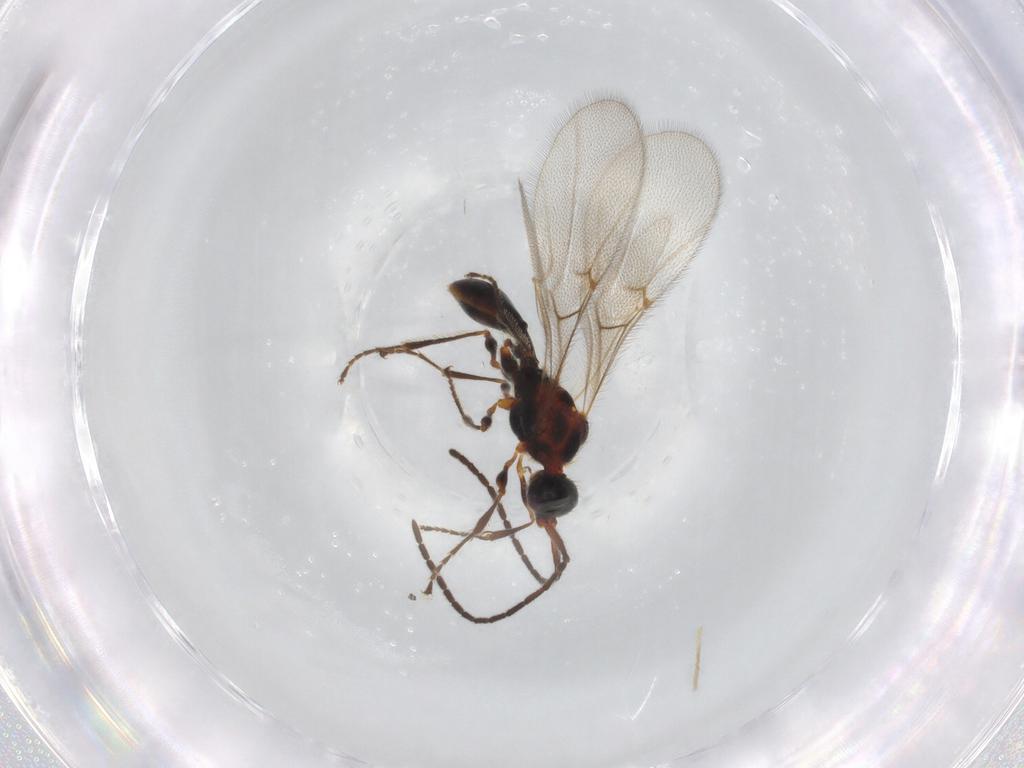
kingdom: Animalia
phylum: Arthropoda
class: Insecta
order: Hymenoptera
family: Diapriidae
